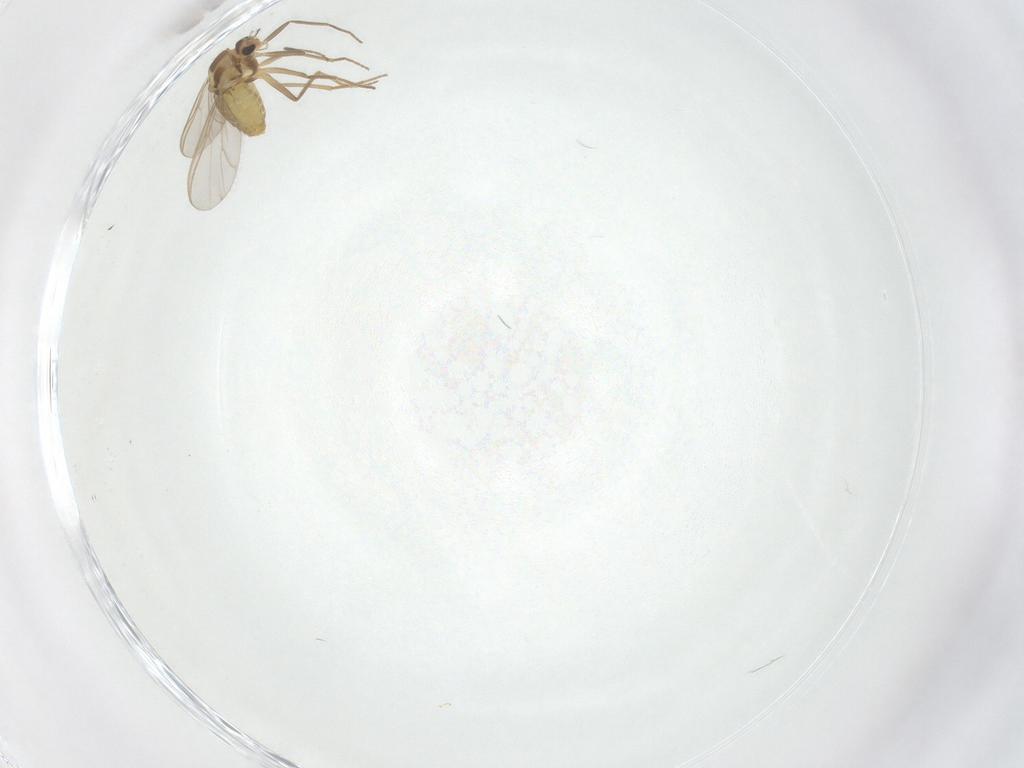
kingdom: Animalia
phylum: Arthropoda
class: Insecta
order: Diptera
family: Chironomidae
